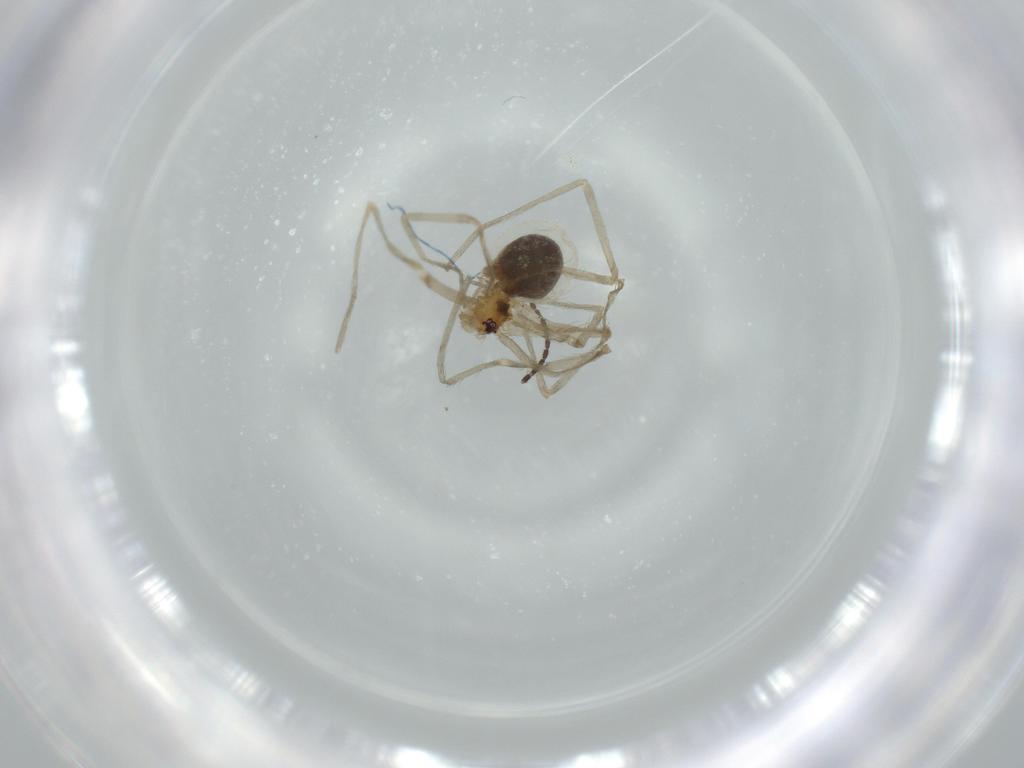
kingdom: Animalia
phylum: Arthropoda
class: Arachnida
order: Araneae
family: Pholcidae
